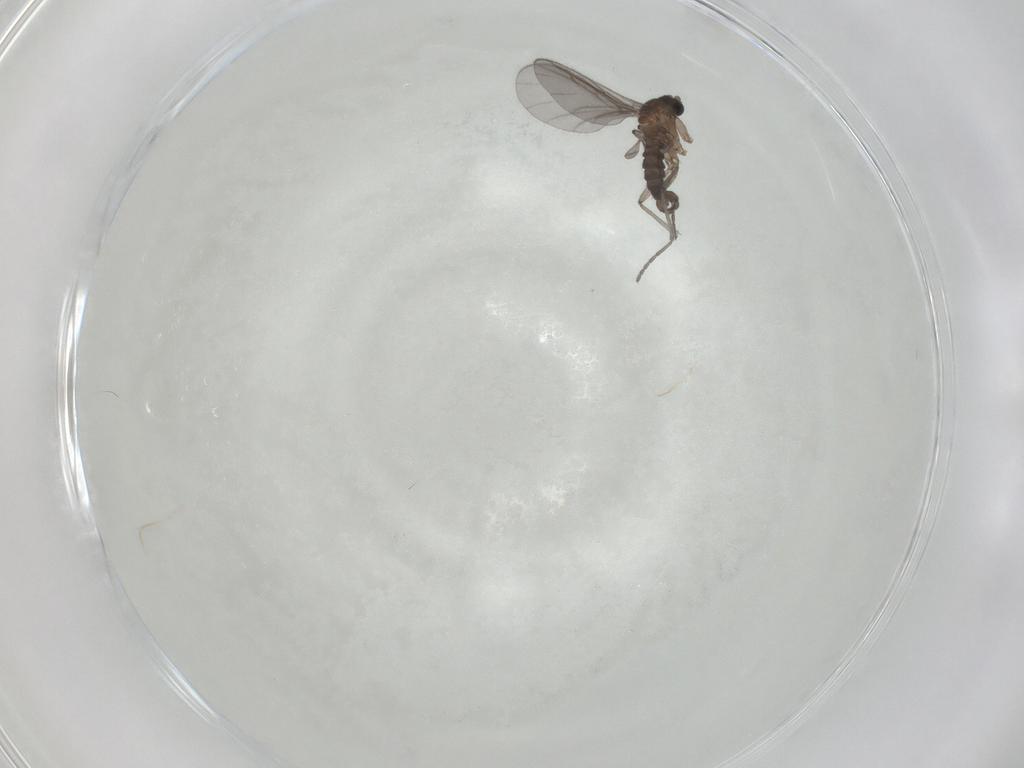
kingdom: Animalia
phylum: Arthropoda
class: Insecta
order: Diptera
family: Sciaridae
